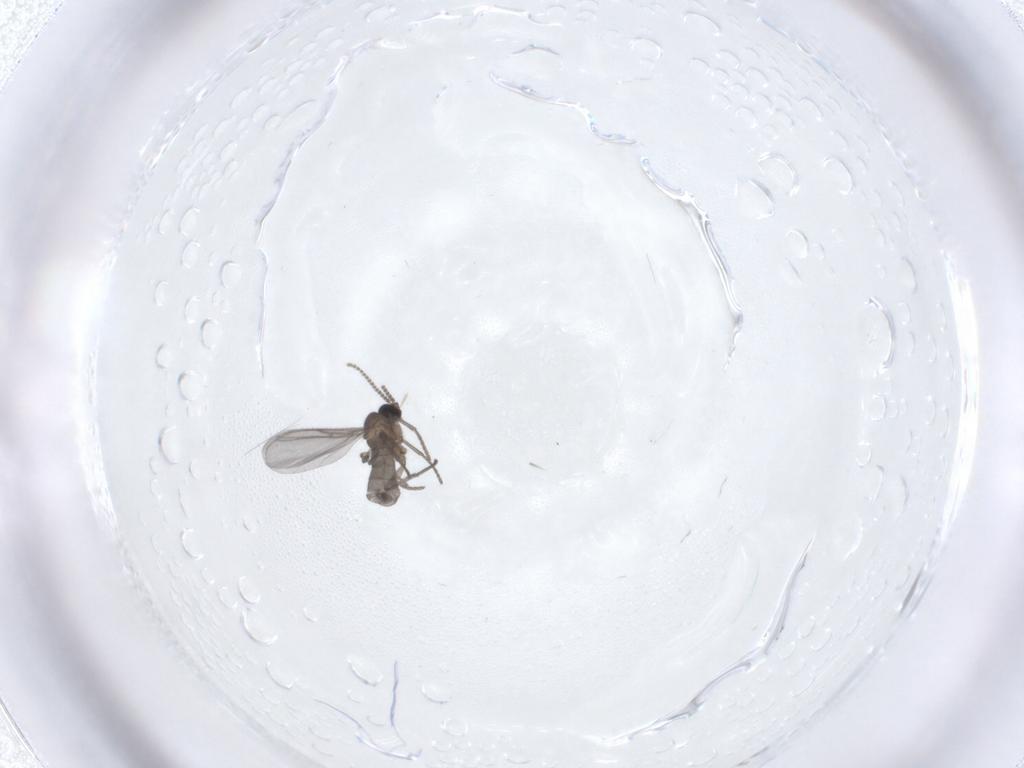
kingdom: Animalia
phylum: Arthropoda
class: Insecta
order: Diptera
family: Sciaridae
